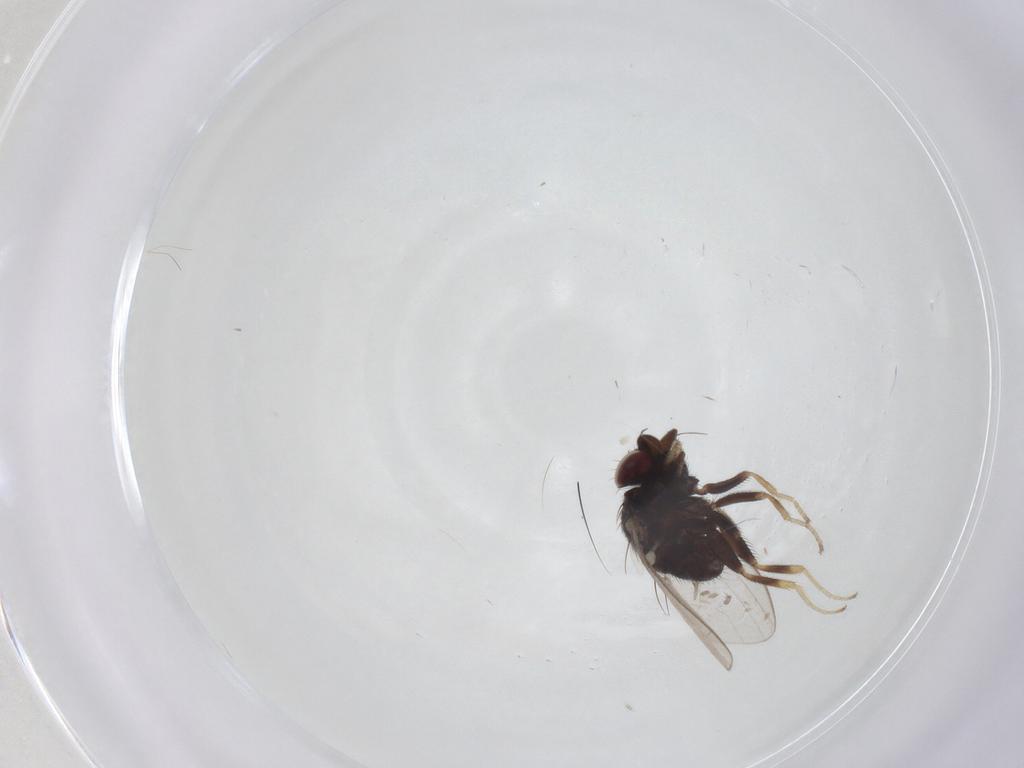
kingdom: Animalia
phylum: Arthropoda
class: Insecta
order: Diptera
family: Milichiidae
